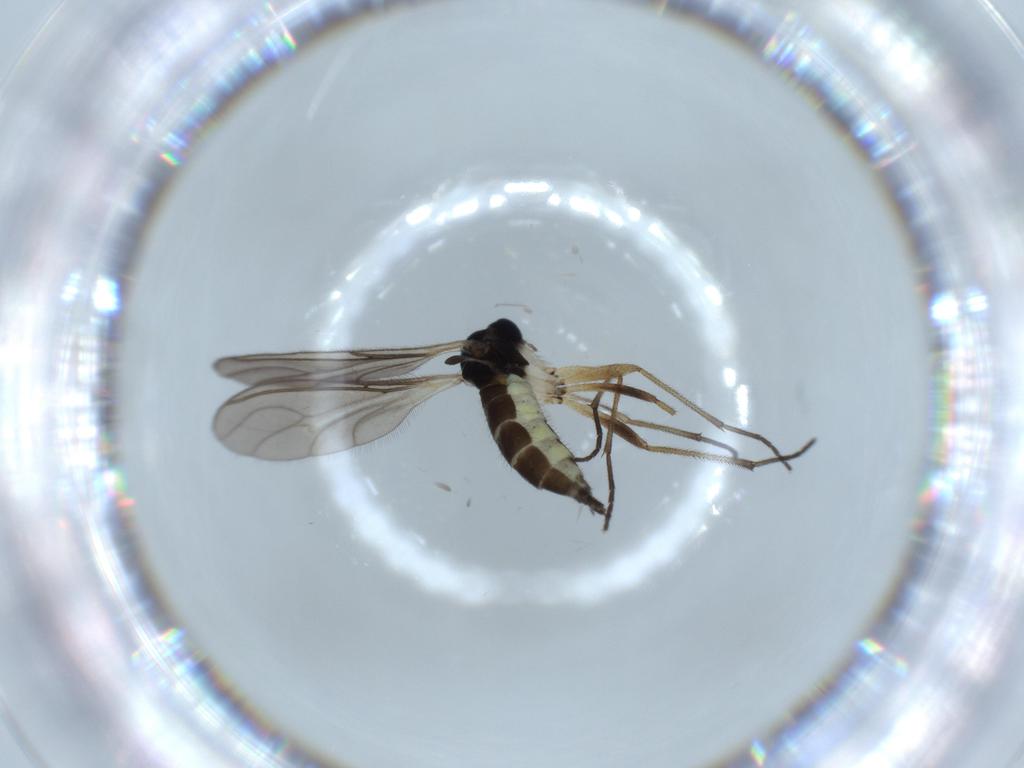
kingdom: Animalia
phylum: Arthropoda
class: Insecta
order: Diptera
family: Sciaridae
